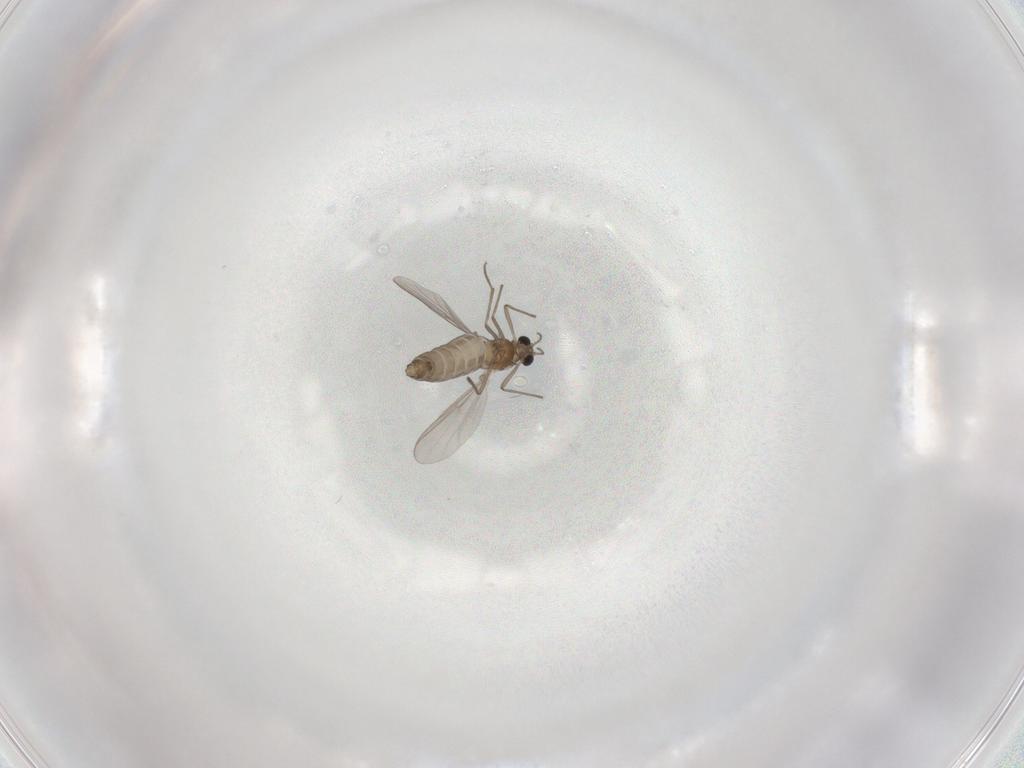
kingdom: Animalia
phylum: Arthropoda
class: Insecta
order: Diptera
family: Chironomidae
